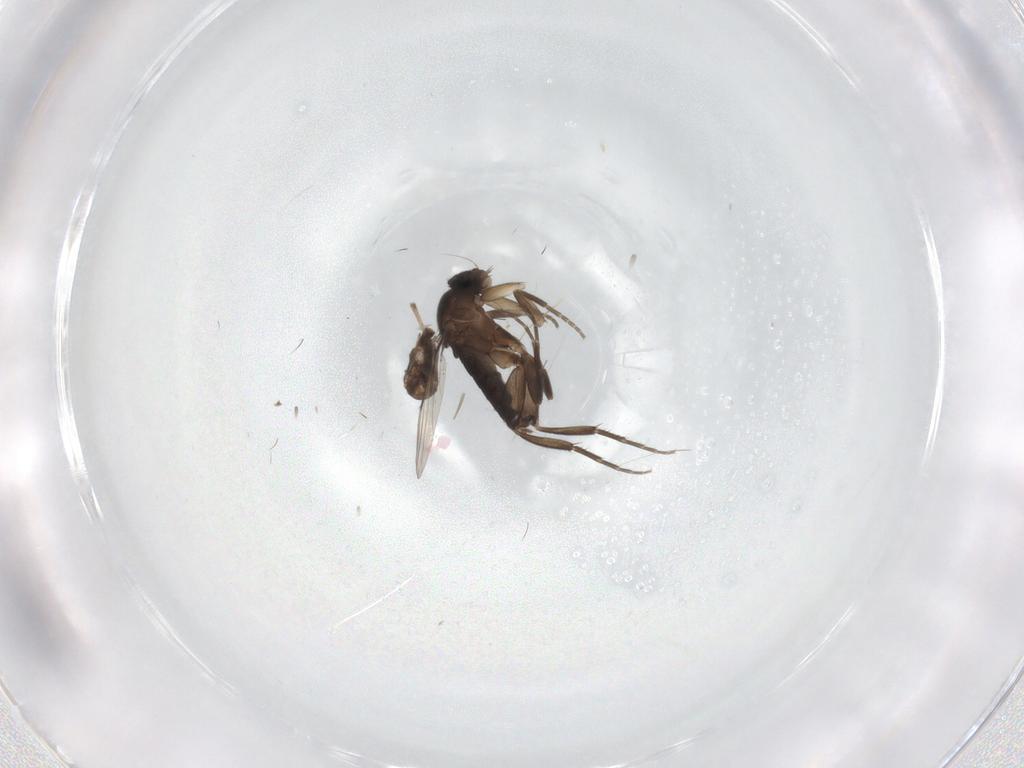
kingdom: Animalia
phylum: Arthropoda
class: Insecta
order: Diptera
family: Phoridae
